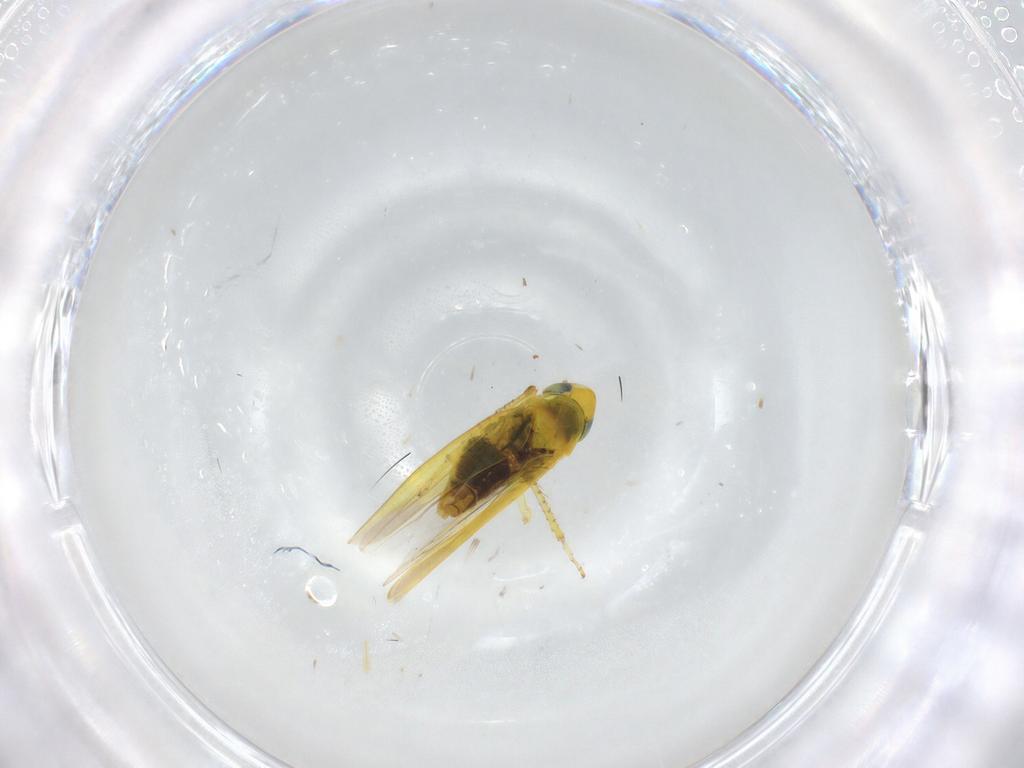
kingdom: Animalia
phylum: Arthropoda
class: Insecta
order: Hemiptera
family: Cicadellidae
